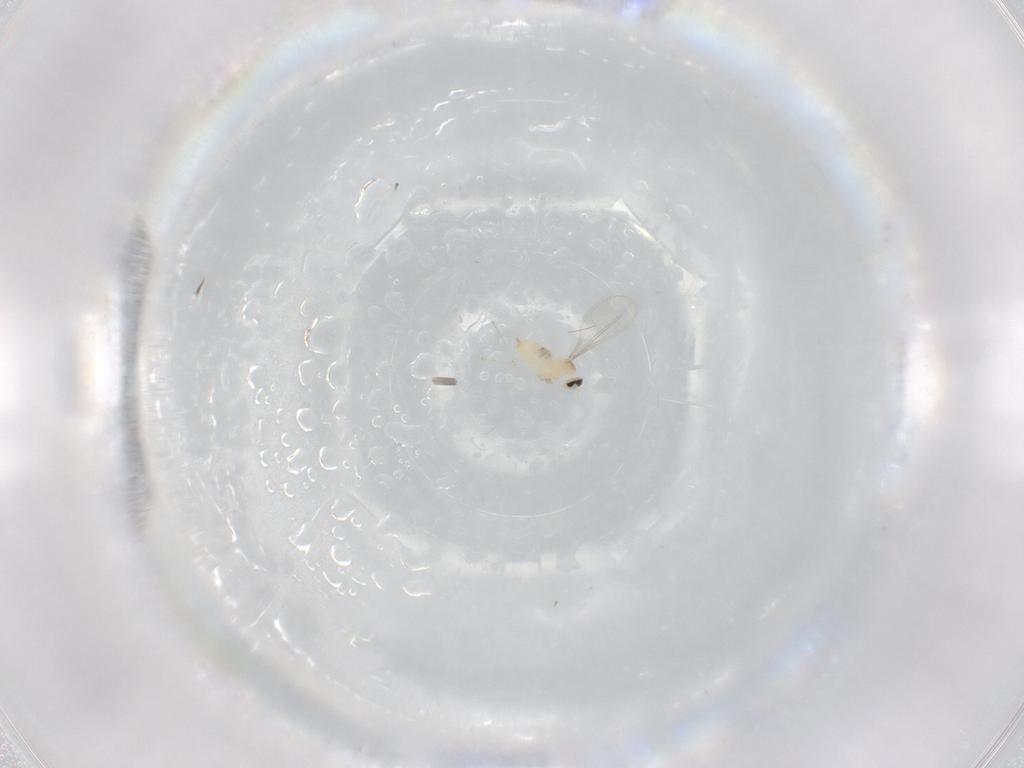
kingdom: Animalia
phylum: Arthropoda
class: Insecta
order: Diptera
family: Cecidomyiidae
